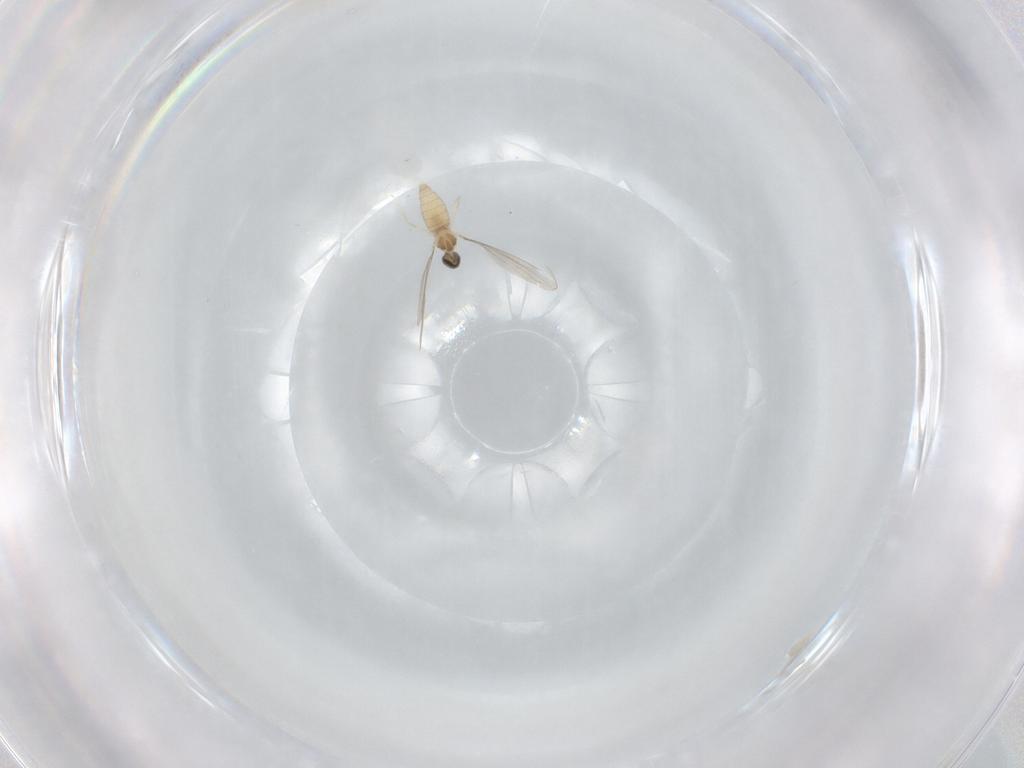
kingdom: Animalia
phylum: Arthropoda
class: Insecta
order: Diptera
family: Cecidomyiidae
